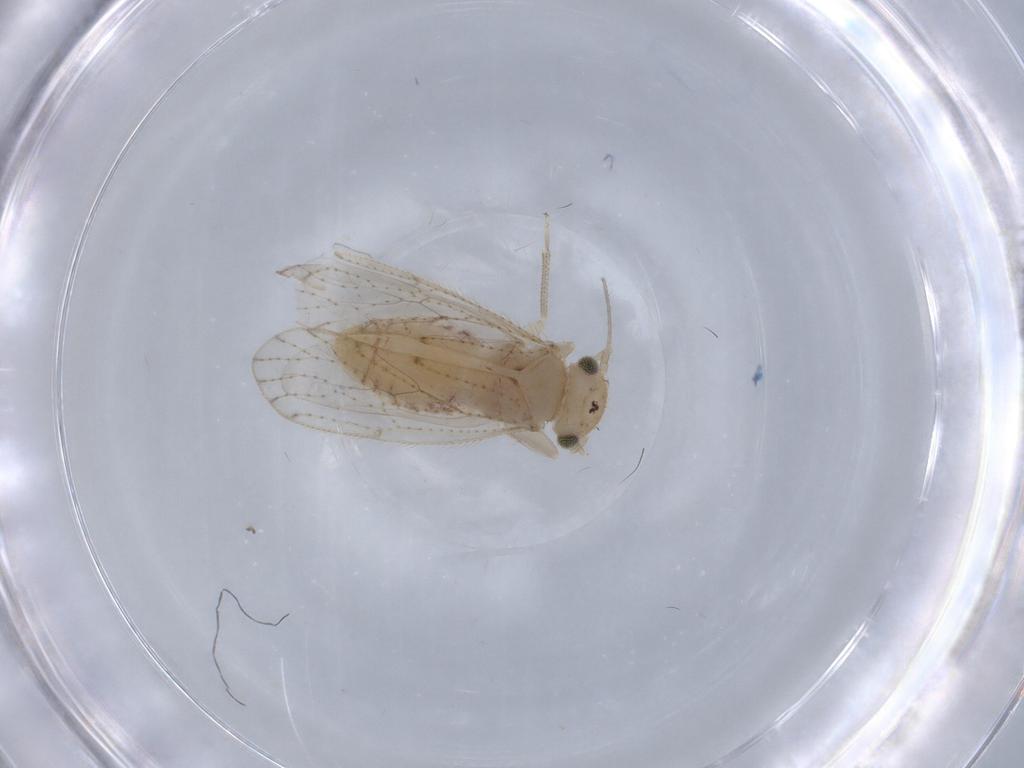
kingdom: Animalia
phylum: Arthropoda
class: Insecta
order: Psocodea
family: Myopsocidae
